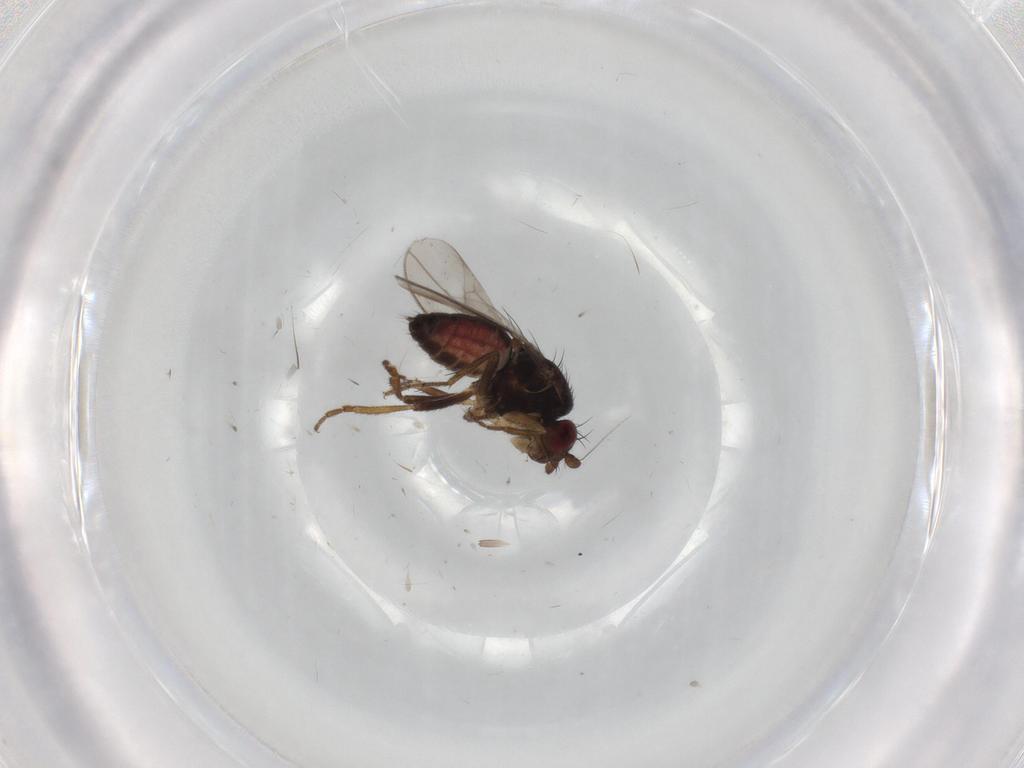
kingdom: Animalia
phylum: Arthropoda
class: Insecta
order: Diptera
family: Sphaeroceridae
